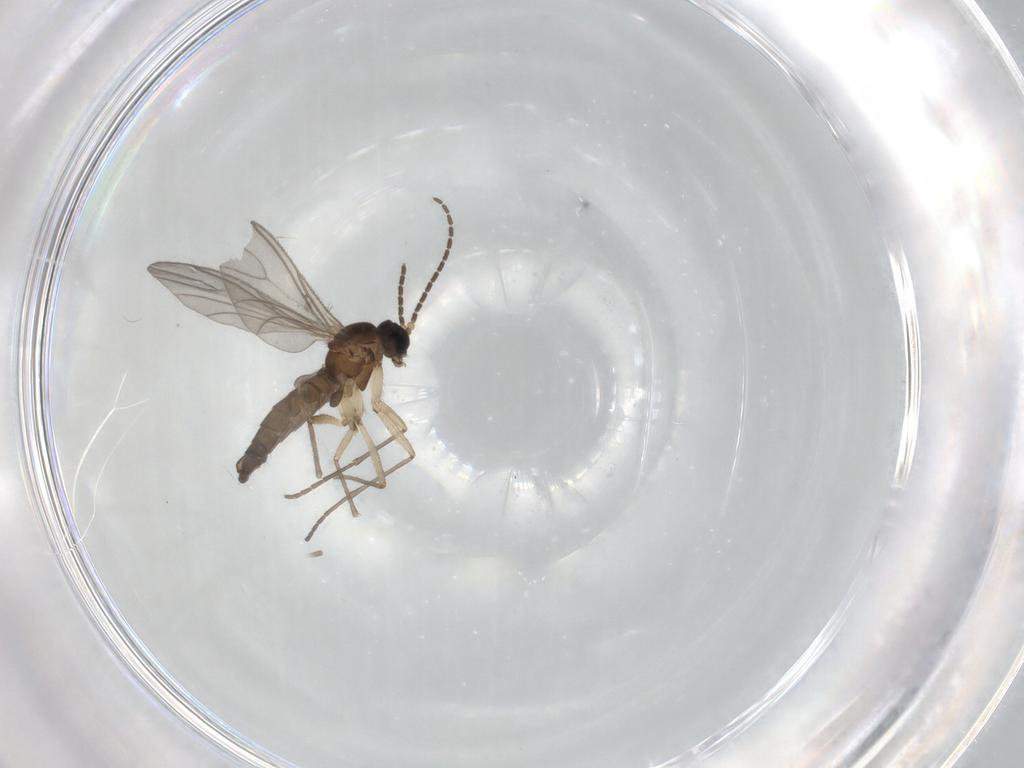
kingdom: Animalia
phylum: Arthropoda
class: Insecta
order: Diptera
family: Sciaridae
